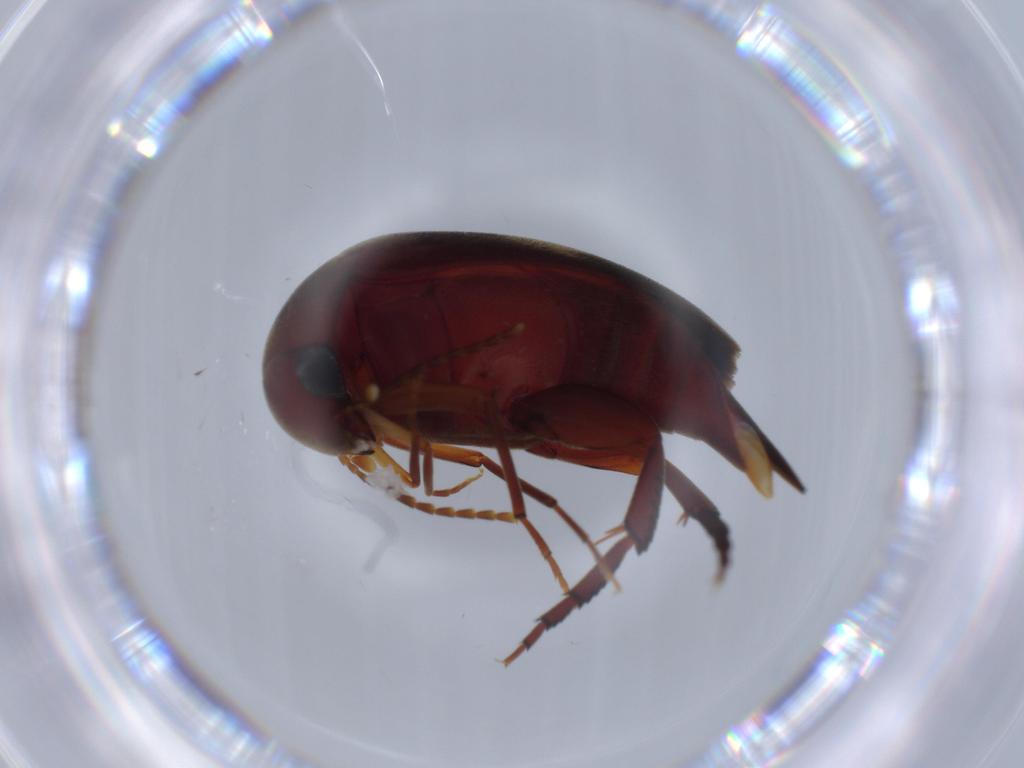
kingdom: Animalia
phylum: Arthropoda
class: Insecta
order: Coleoptera
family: Mordellidae
